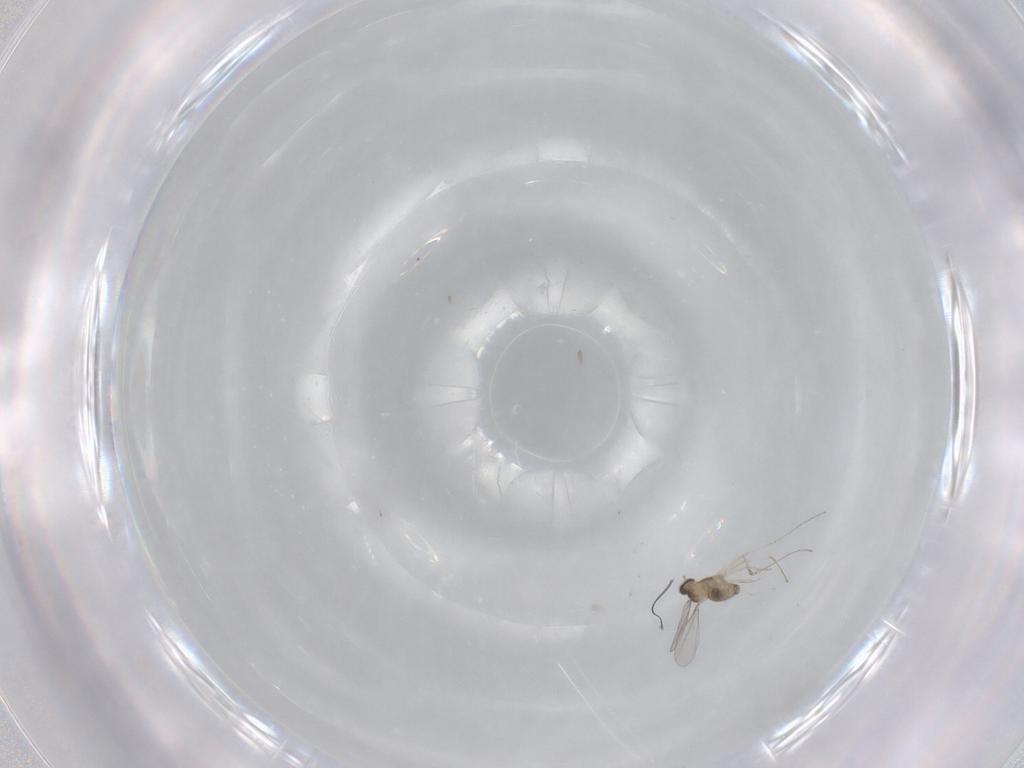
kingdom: Animalia
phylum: Arthropoda
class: Insecta
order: Diptera
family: Cecidomyiidae
